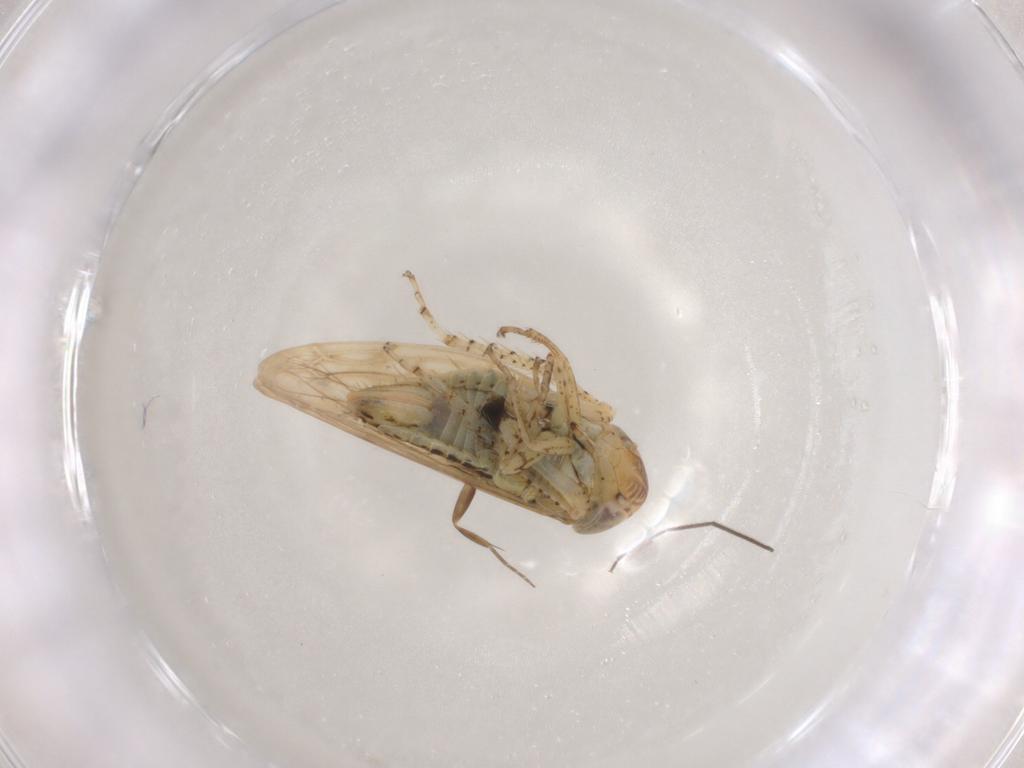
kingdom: Animalia
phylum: Arthropoda
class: Insecta
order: Hemiptera
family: Cicadellidae
